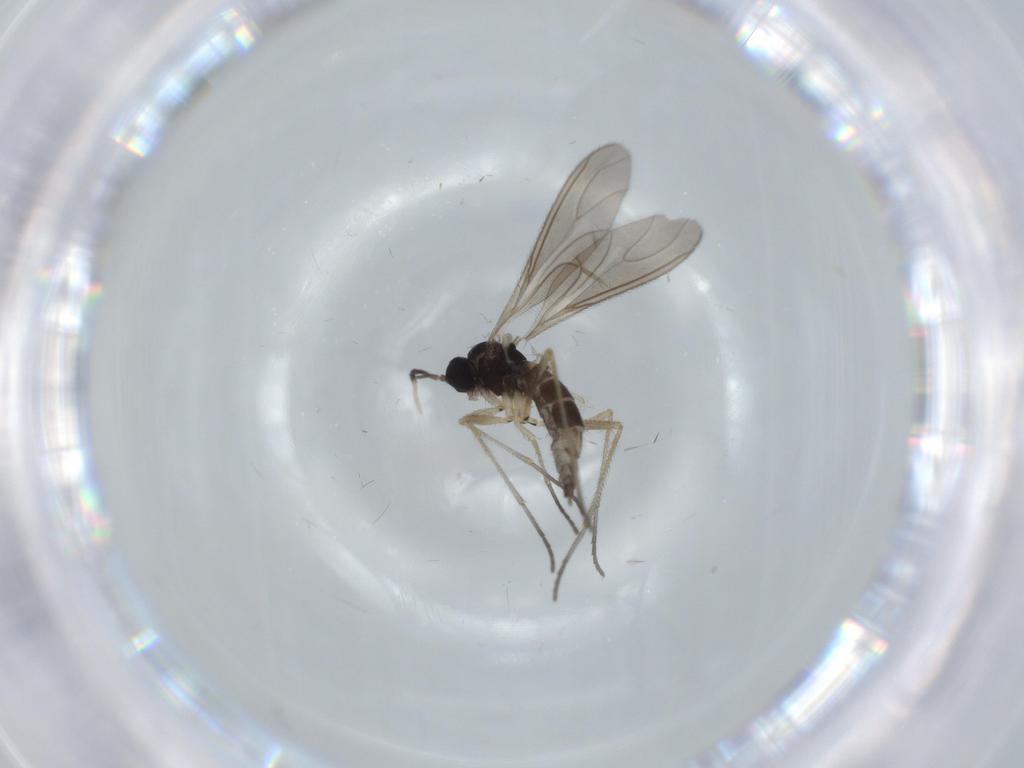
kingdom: Animalia
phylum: Arthropoda
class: Insecta
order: Diptera
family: Sciaridae
